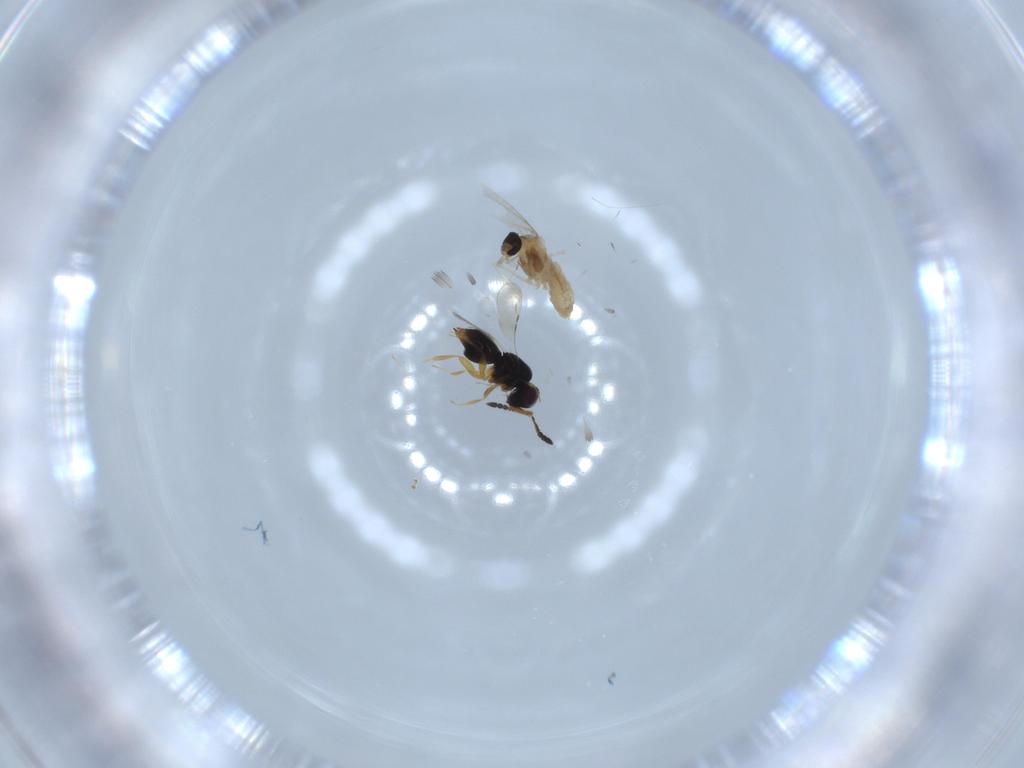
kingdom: Animalia
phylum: Arthropoda
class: Insecta
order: Diptera
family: Cecidomyiidae
